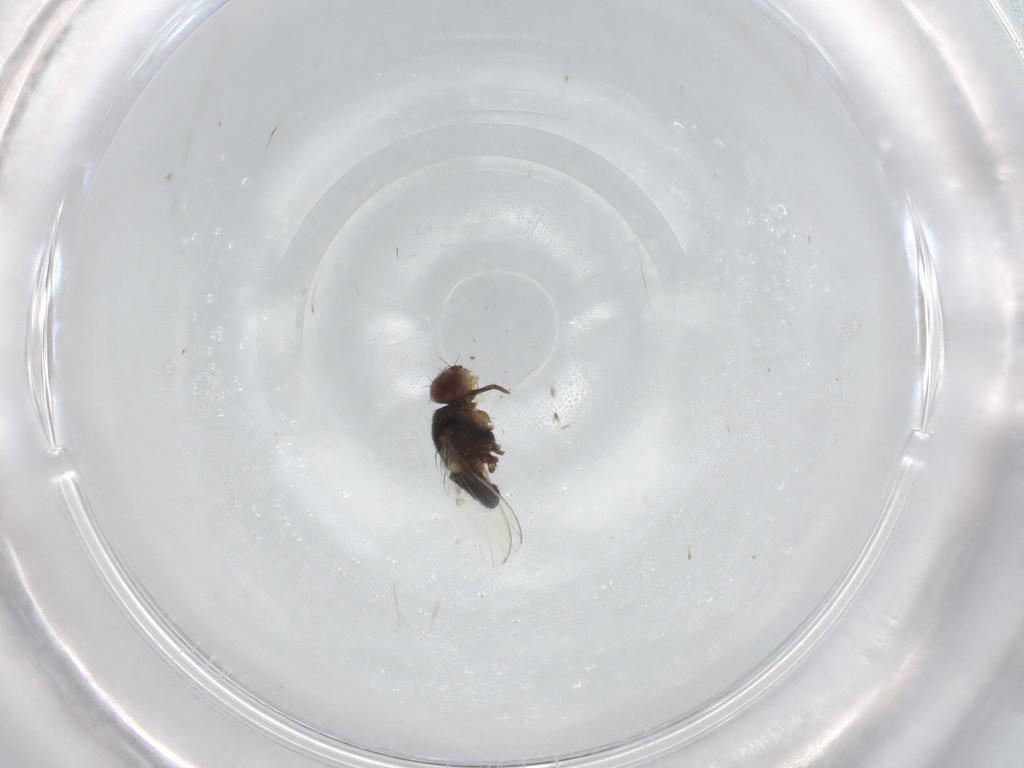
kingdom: Animalia
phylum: Arthropoda
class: Insecta
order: Diptera
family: Milichiidae
